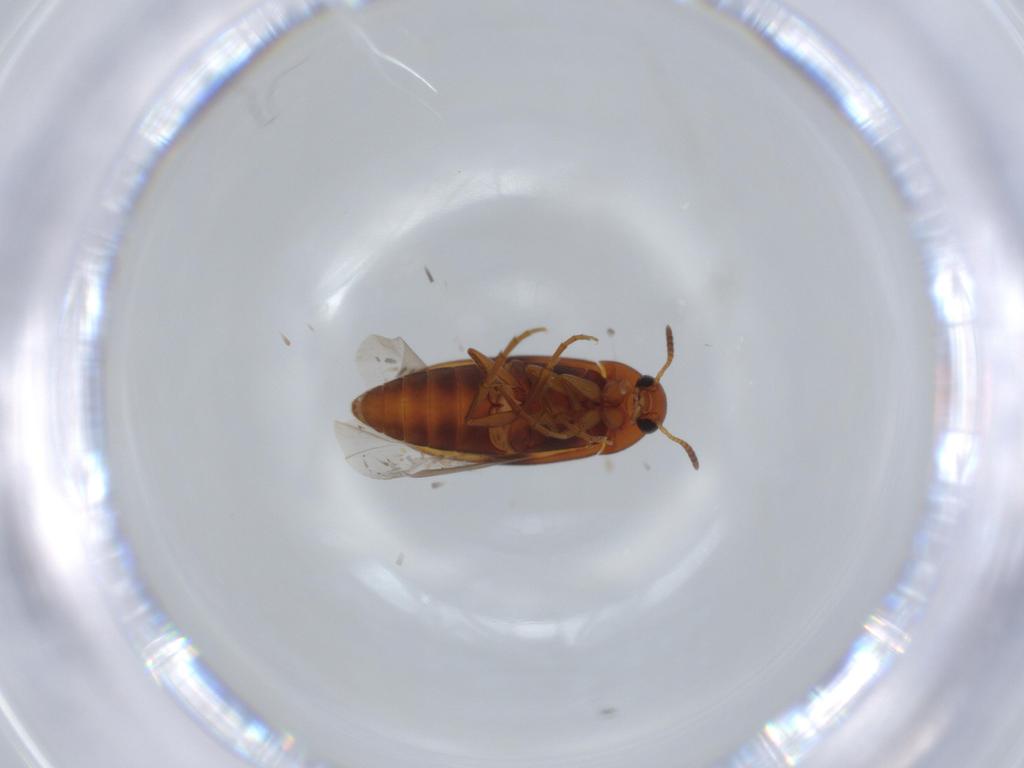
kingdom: Animalia
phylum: Arthropoda
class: Insecta
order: Coleoptera
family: Scraptiidae
